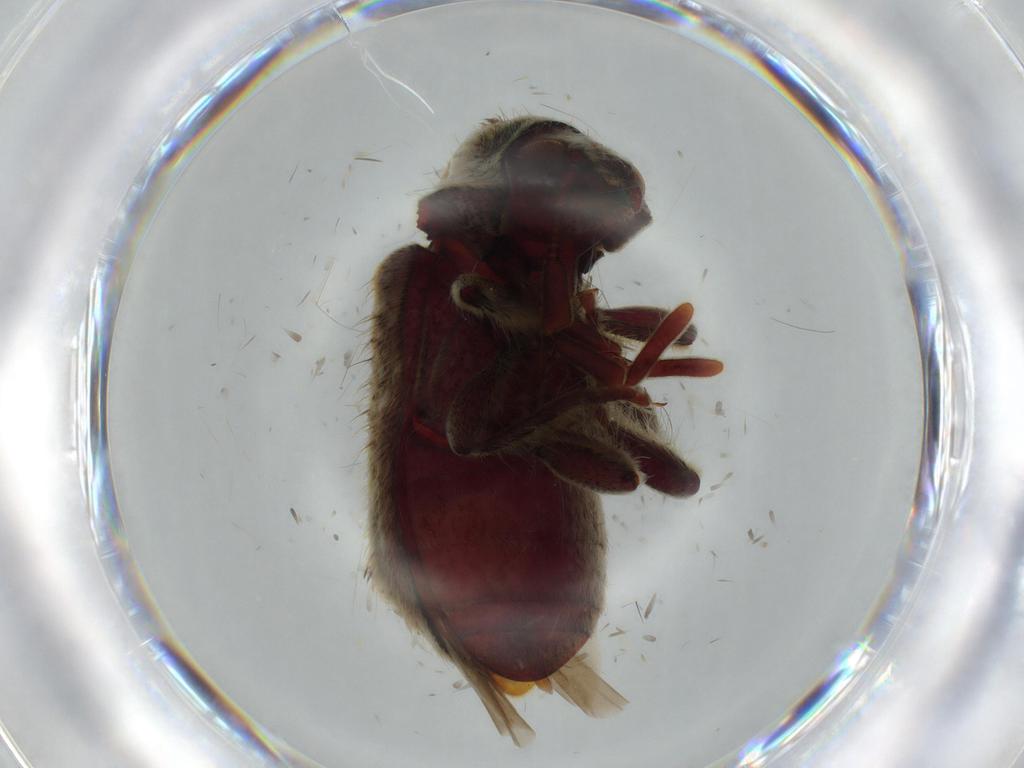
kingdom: Animalia
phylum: Arthropoda
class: Insecta
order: Coleoptera
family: Ptinidae
